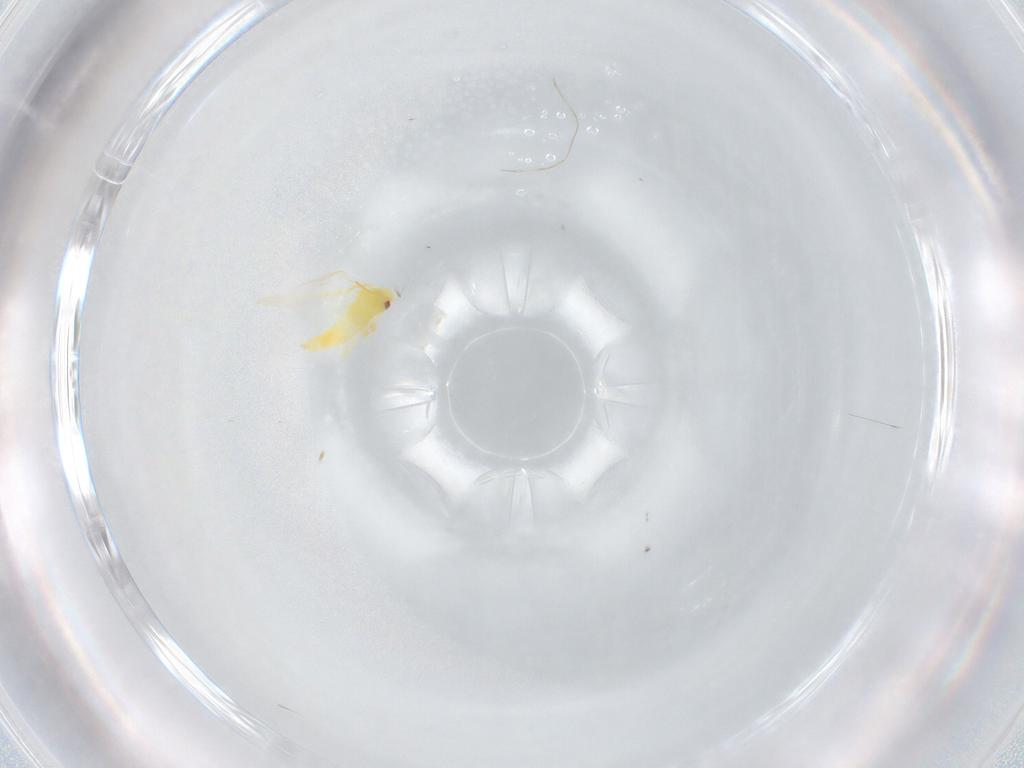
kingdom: Animalia
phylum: Arthropoda
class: Insecta
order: Hemiptera
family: Aleyrodidae
